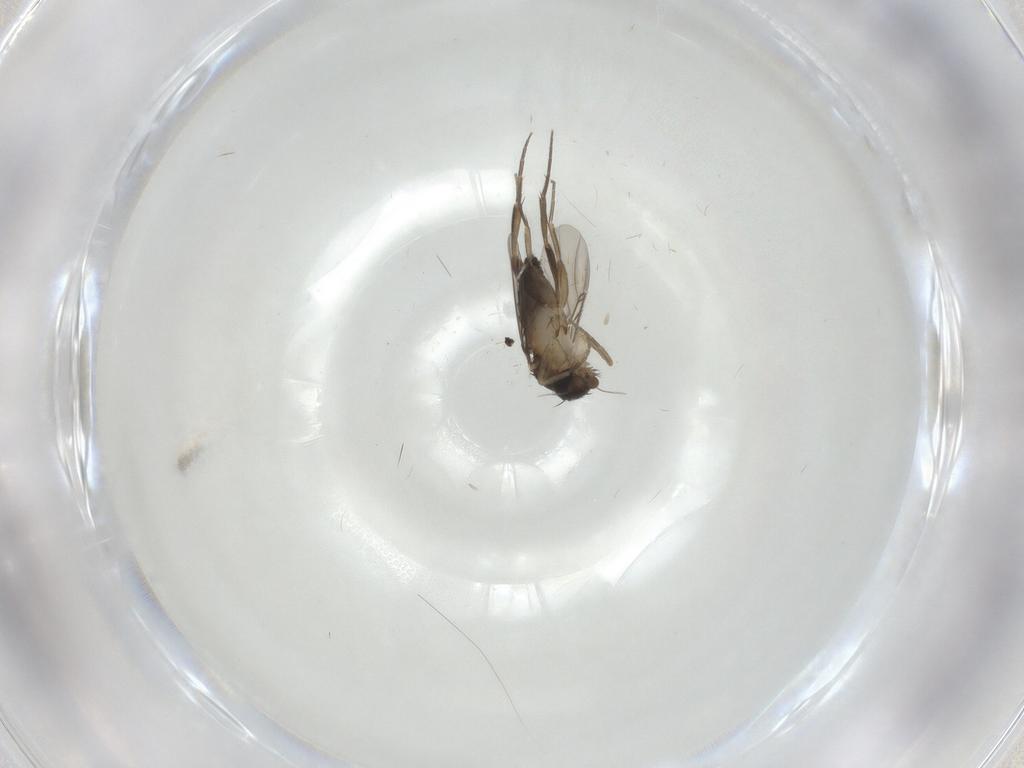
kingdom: Animalia
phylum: Arthropoda
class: Insecta
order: Diptera
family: Phoridae
